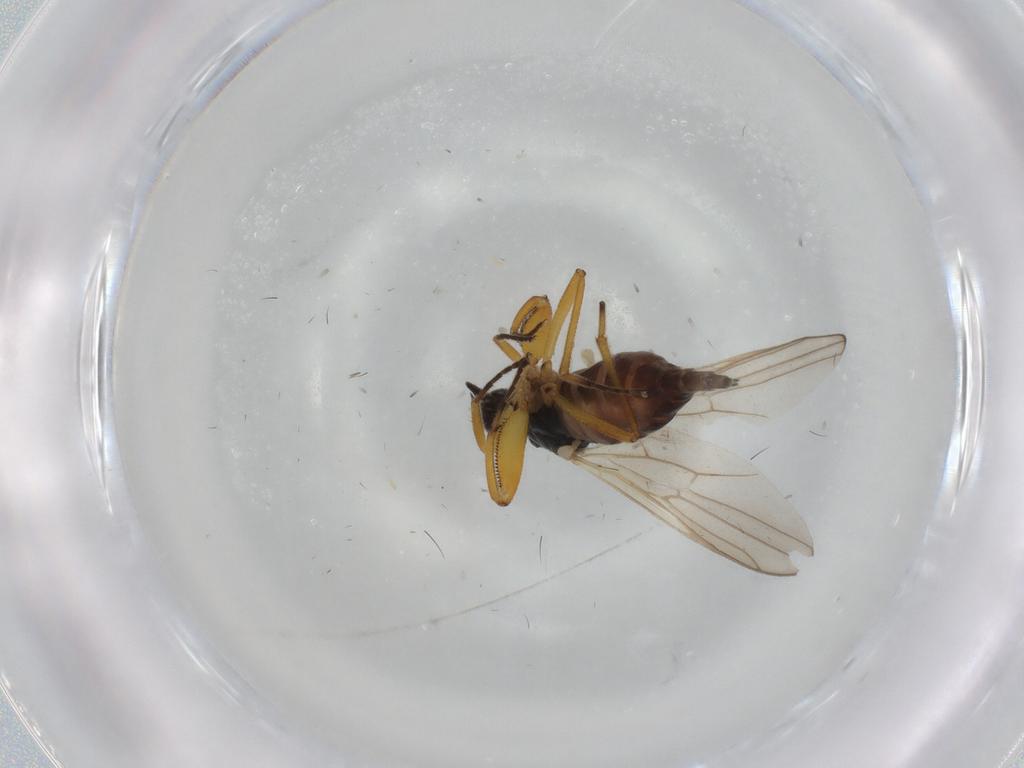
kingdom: Animalia
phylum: Arthropoda
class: Insecta
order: Diptera
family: Hybotidae
